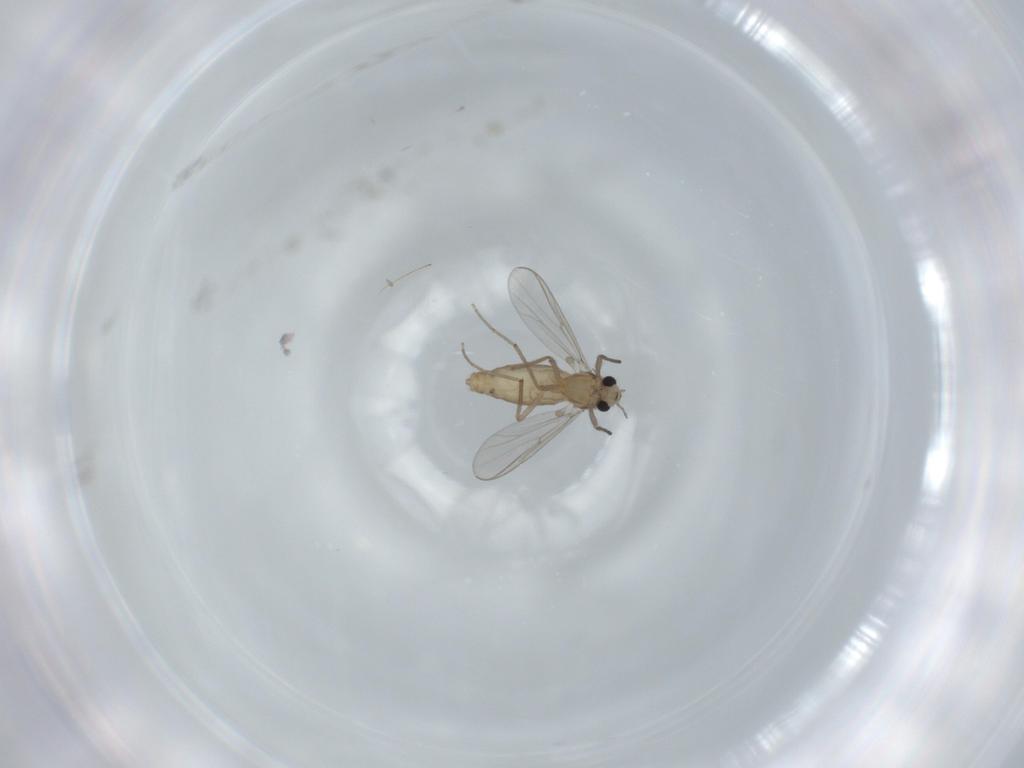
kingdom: Animalia
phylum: Arthropoda
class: Insecta
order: Diptera
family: Chironomidae
